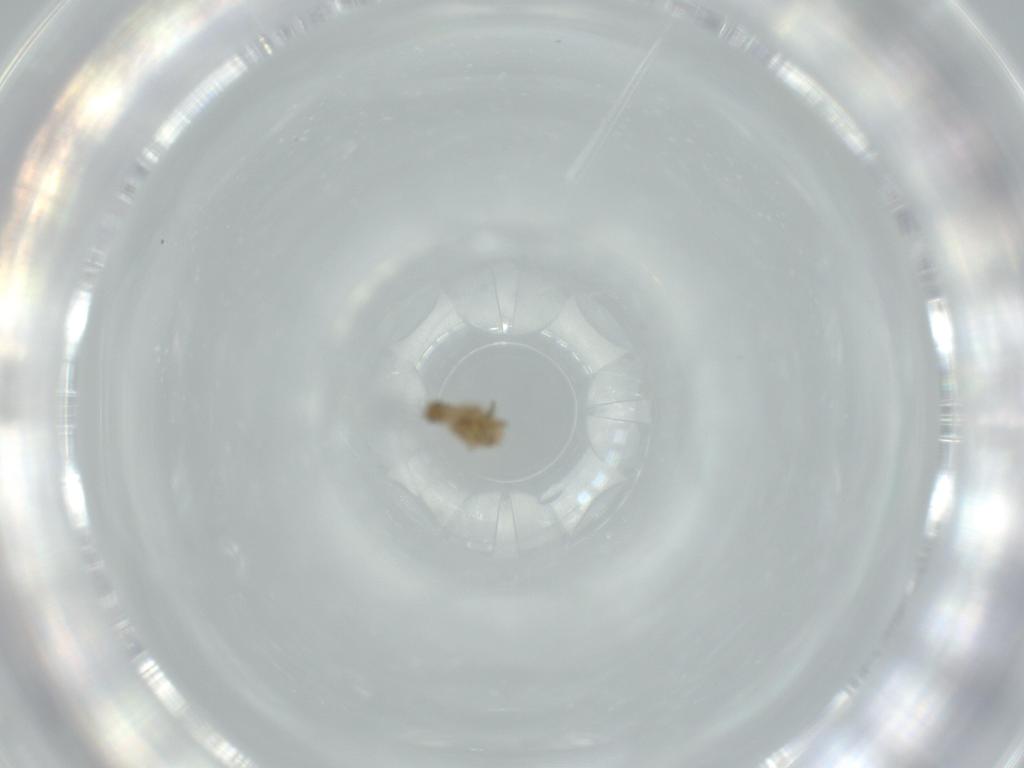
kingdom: Animalia
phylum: Arthropoda
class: Insecta
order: Diptera
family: Phoridae
